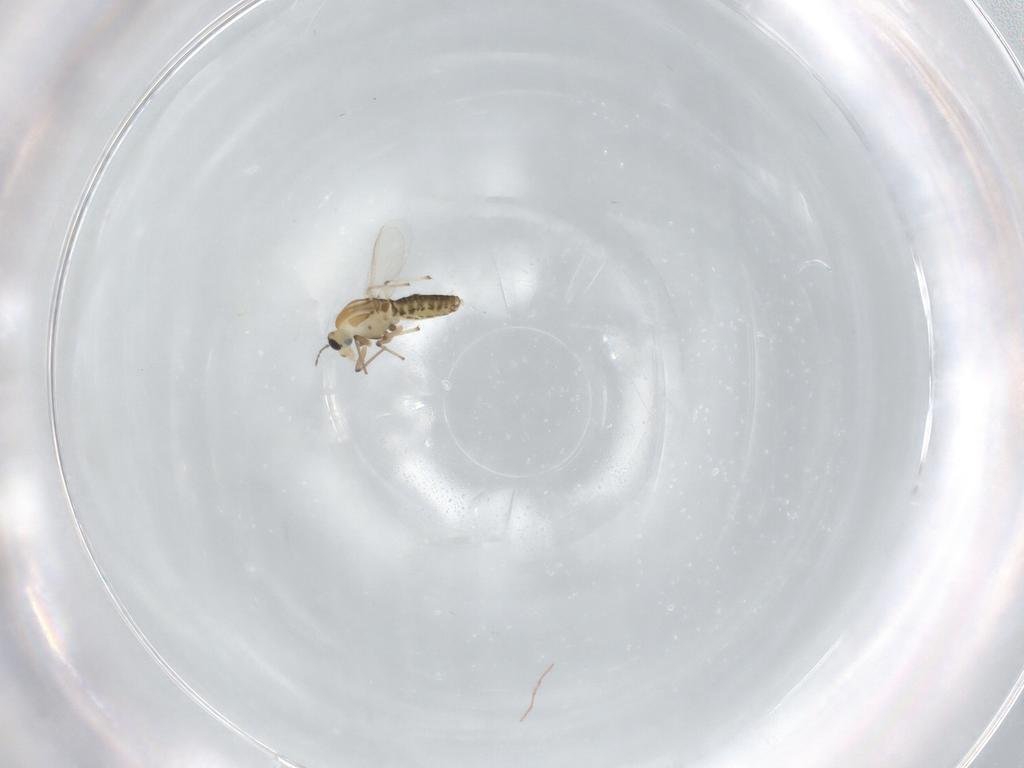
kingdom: Animalia
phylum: Arthropoda
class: Insecta
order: Diptera
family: Chironomidae
